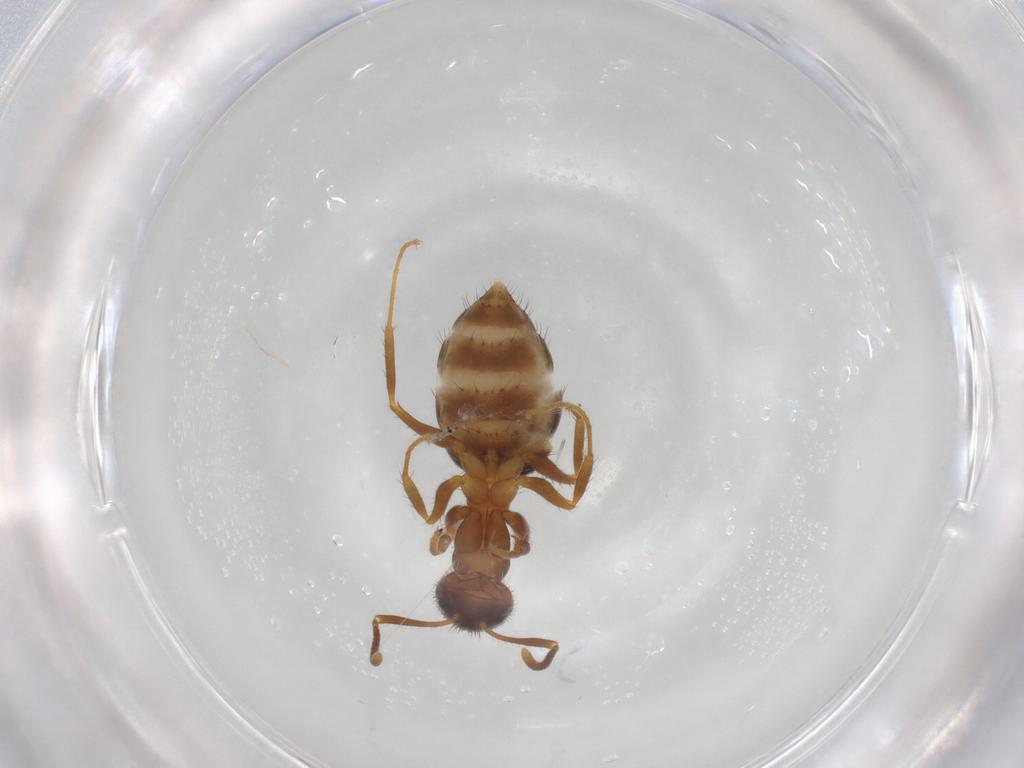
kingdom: Animalia
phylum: Arthropoda
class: Insecta
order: Hymenoptera
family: Formicidae
